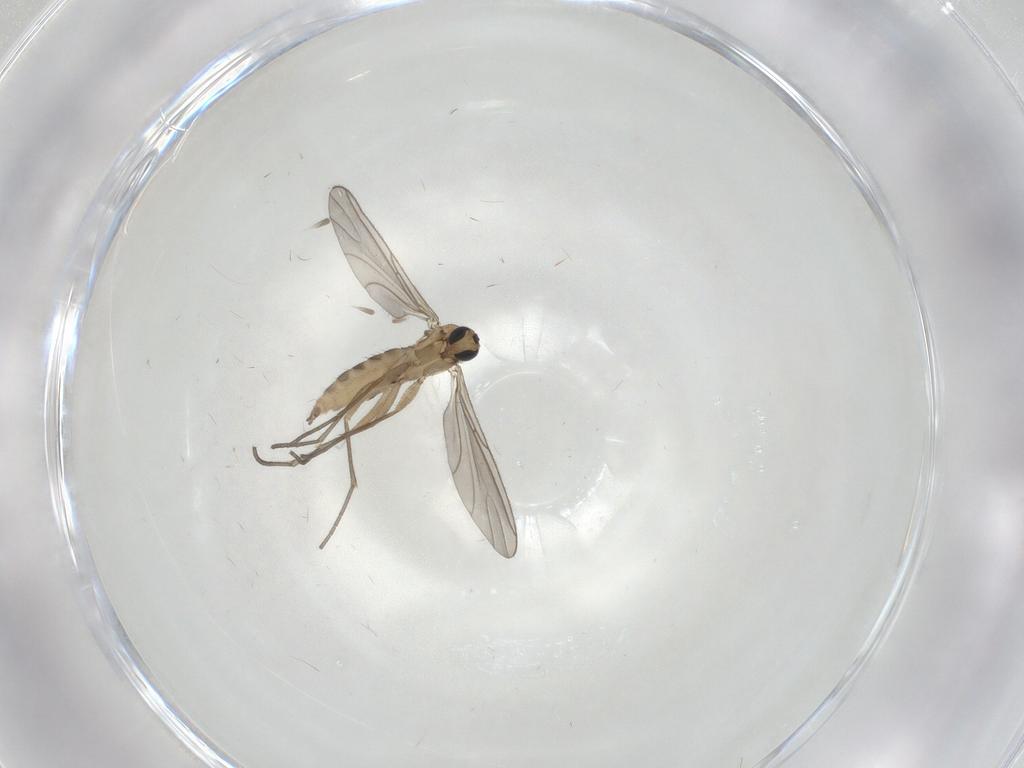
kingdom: Animalia
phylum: Arthropoda
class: Insecta
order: Diptera
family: Sciaridae
